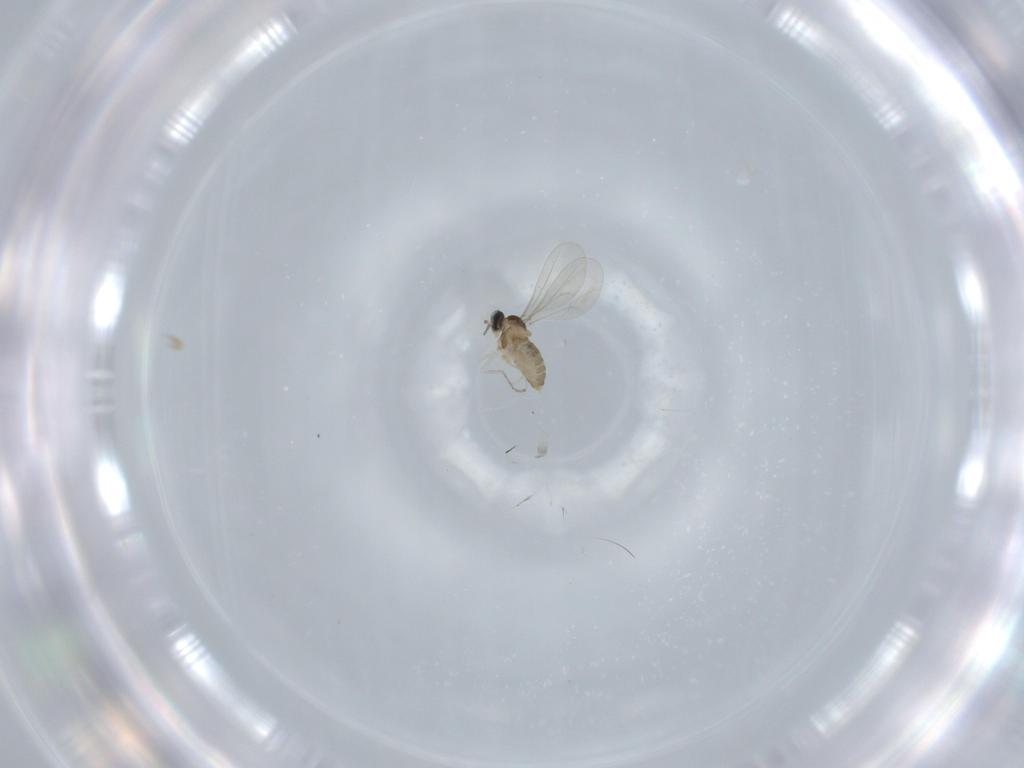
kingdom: Animalia
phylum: Arthropoda
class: Insecta
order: Diptera
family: Cecidomyiidae
